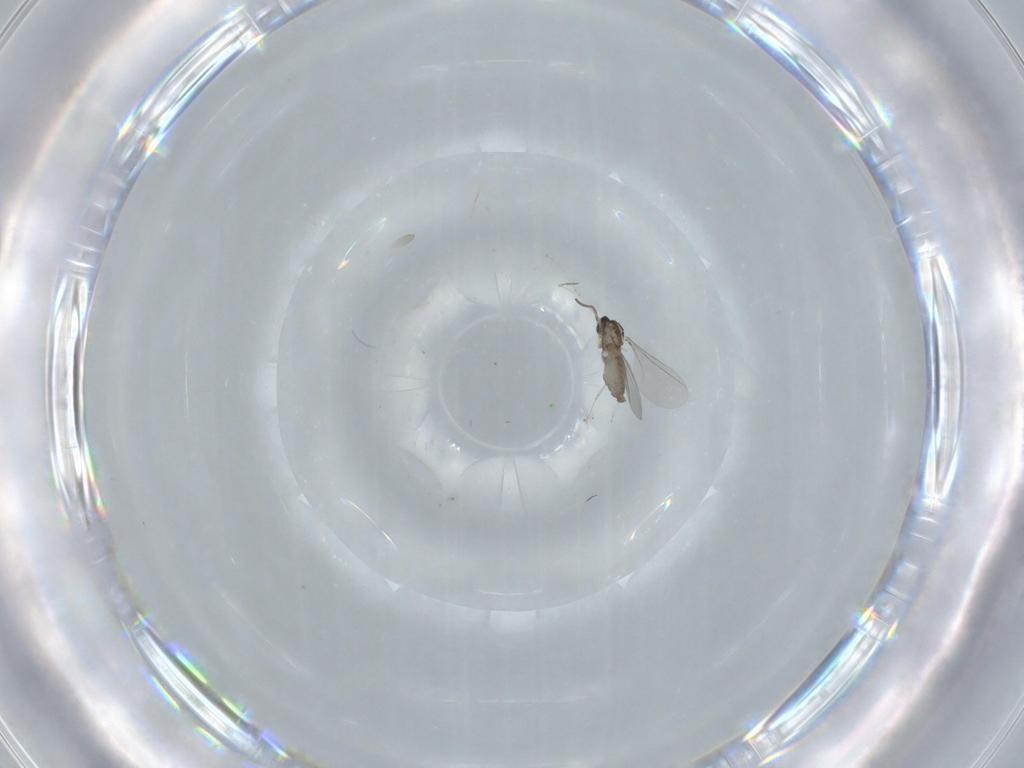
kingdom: Animalia
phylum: Arthropoda
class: Insecta
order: Diptera
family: Cecidomyiidae
